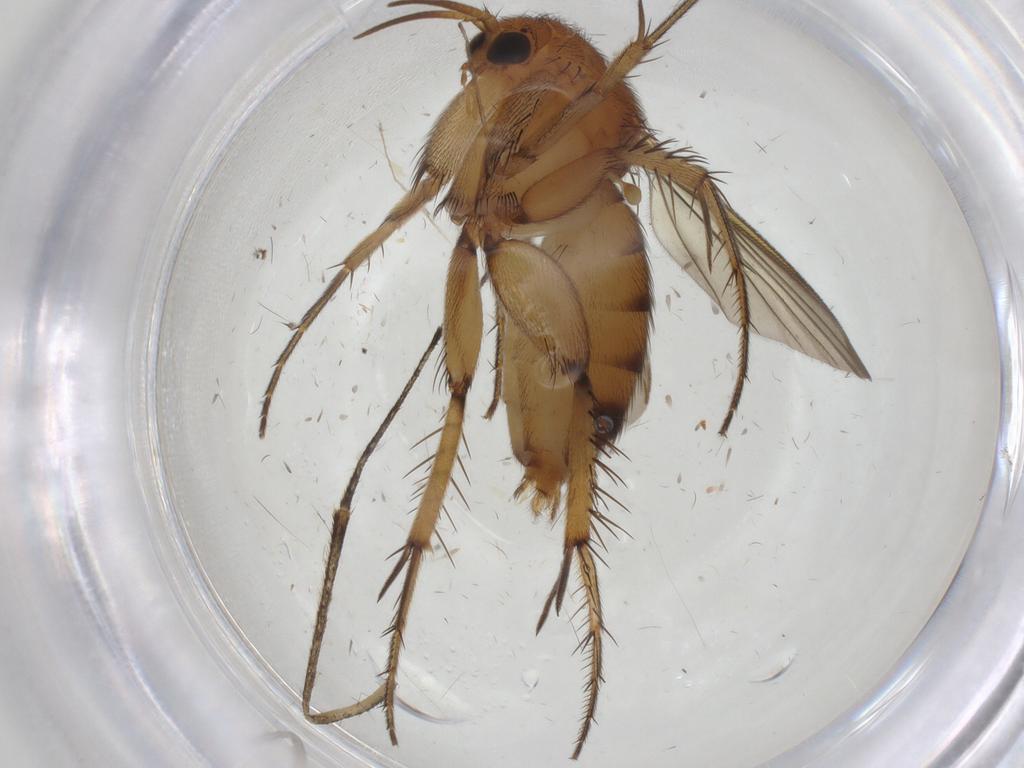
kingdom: Animalia
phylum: Arthropoda
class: Insecta
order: Diptera
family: Mycetophilidae
